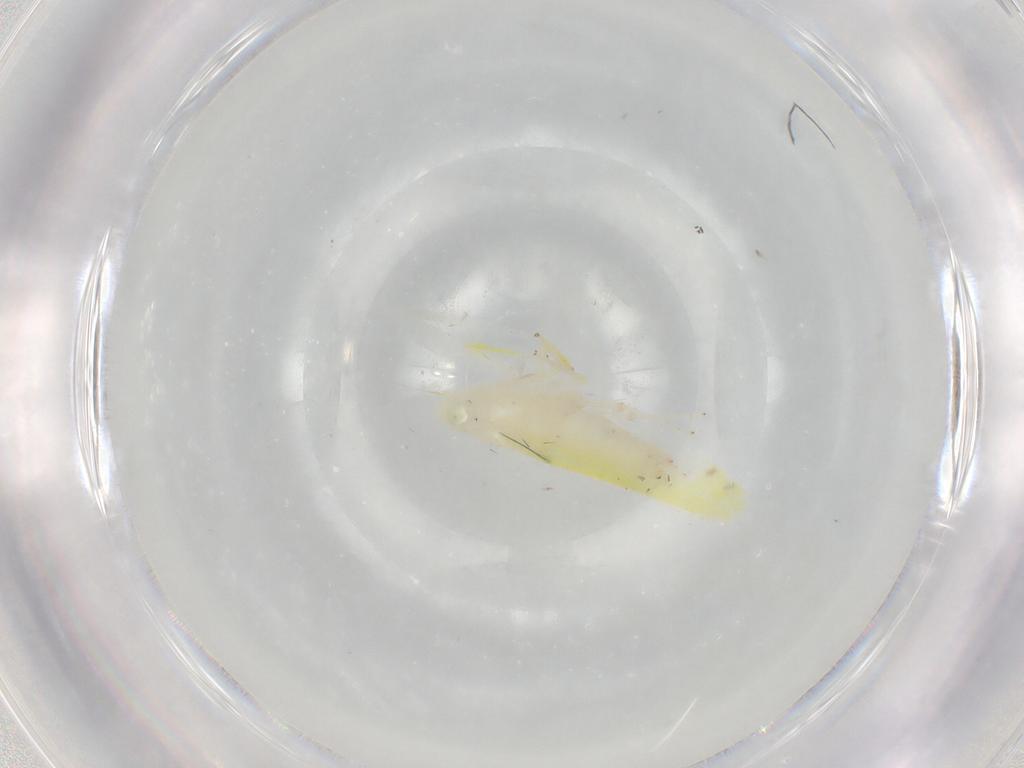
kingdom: Animalia
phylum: Arthropoda
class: Insecta
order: Hemiptera
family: Cicadellidae
